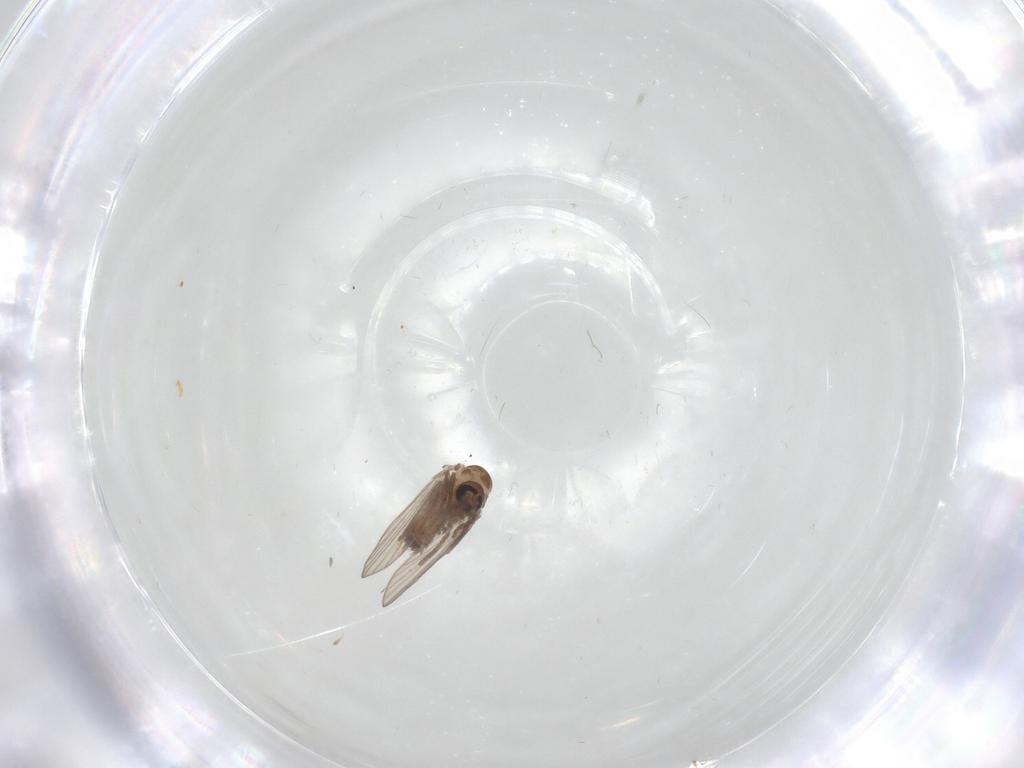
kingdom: Animalia
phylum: Arthropoda
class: Insecta
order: Diptera
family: Psychodidae
